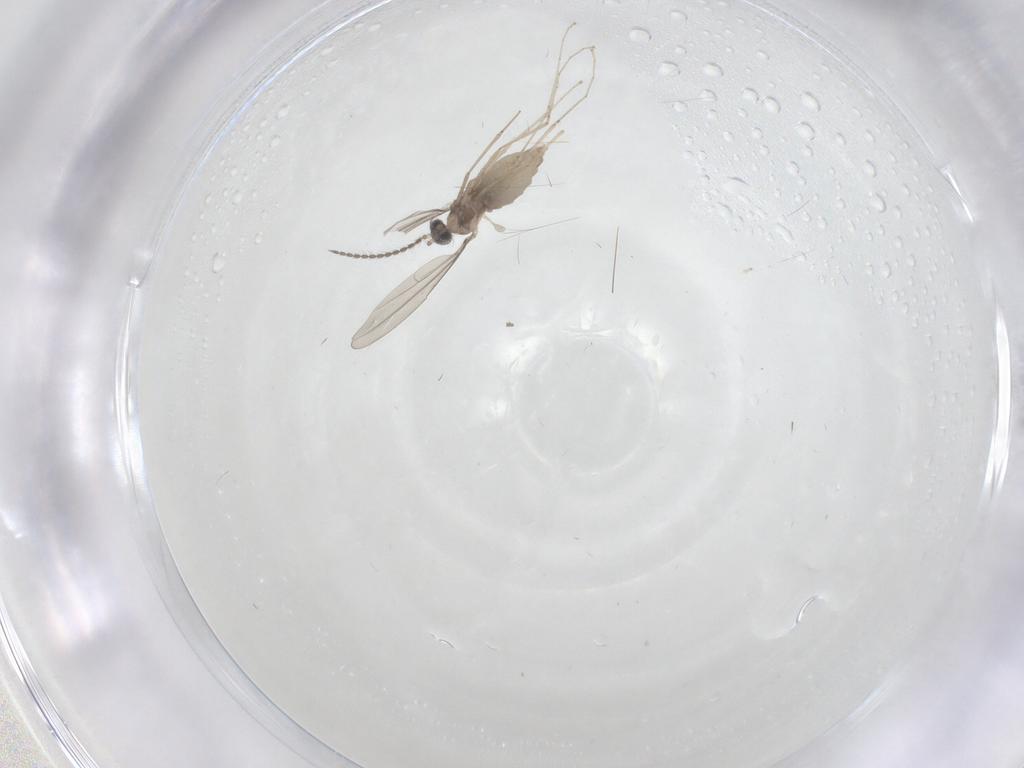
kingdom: Animalia
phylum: Arthropoda
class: Insecta
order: Diptera
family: Cecidomyiidae
